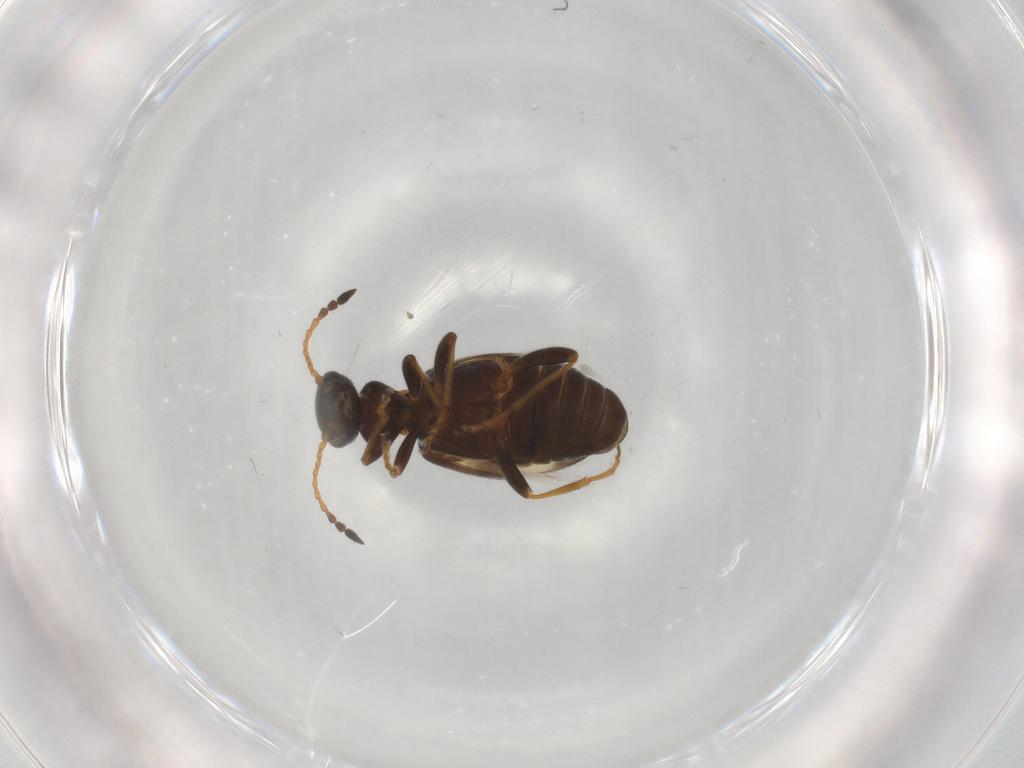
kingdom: Animalia
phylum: Arthropoda
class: Insecta
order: Coleoptera
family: Anthicidae
